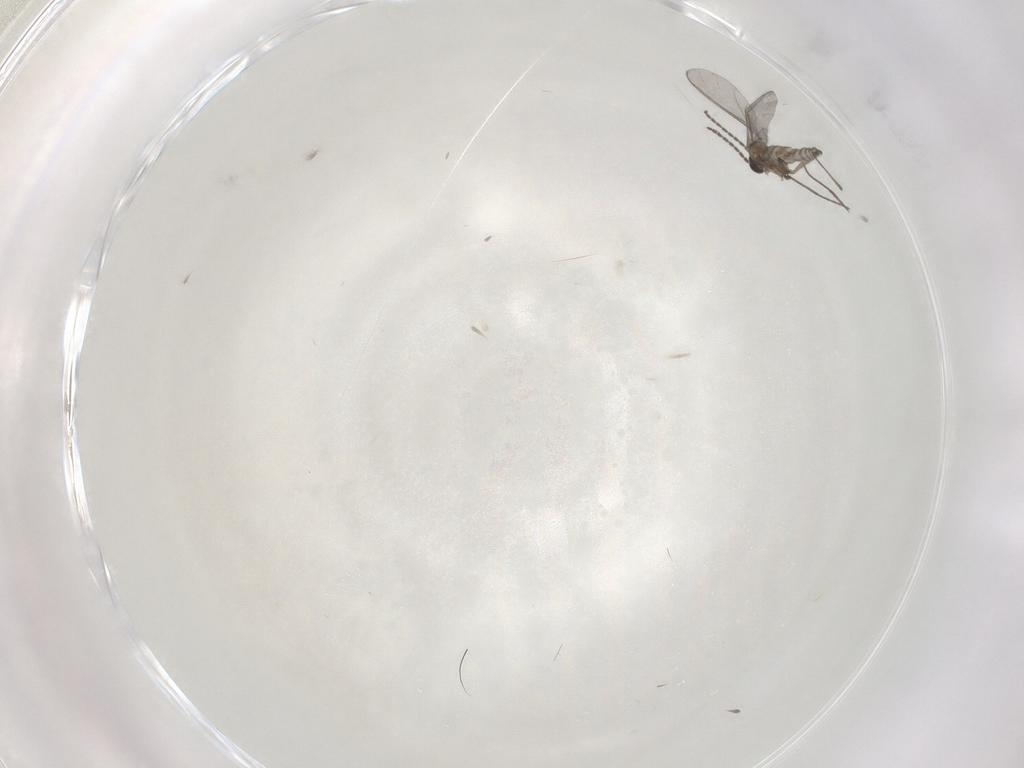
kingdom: Animalia
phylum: Arthropoda
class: Insecta
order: Diptera
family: Sciaridae
